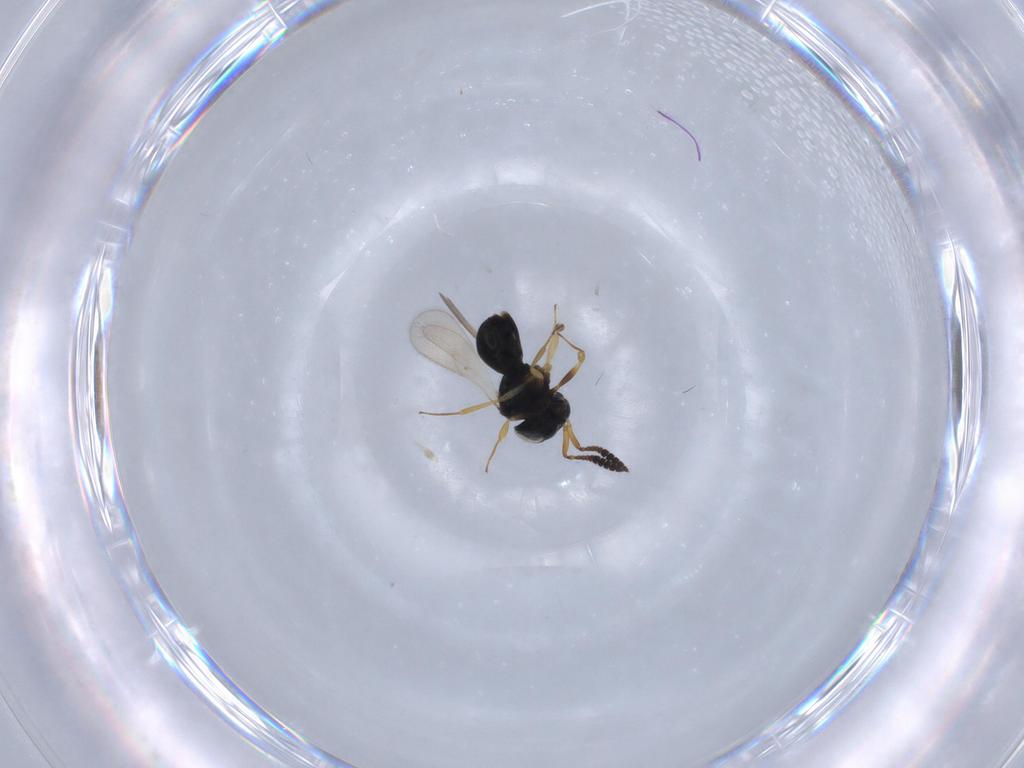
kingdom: Animalia
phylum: Arthropoda
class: Insecta
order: Hymenoptera
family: Scelionidae
